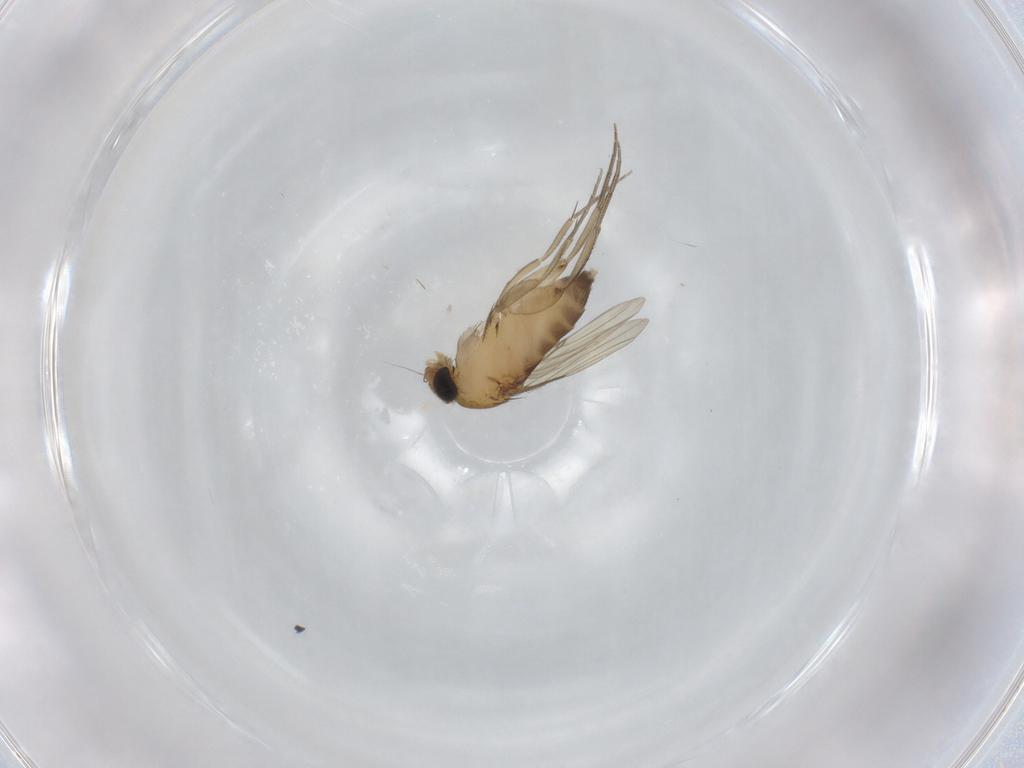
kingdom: Animalia
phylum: Arthropoda
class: Insecta
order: Diptera
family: Phoridae
